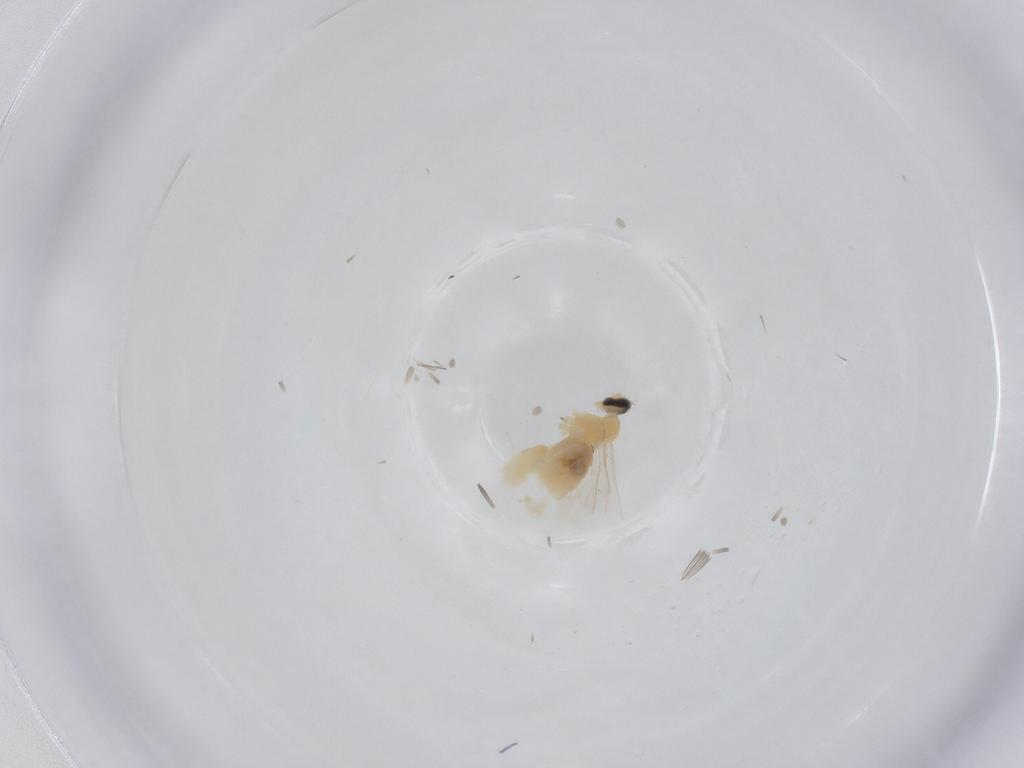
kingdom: Animalia
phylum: Arthropoda
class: Insecta
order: Diptera
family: Cecidomyiidae
